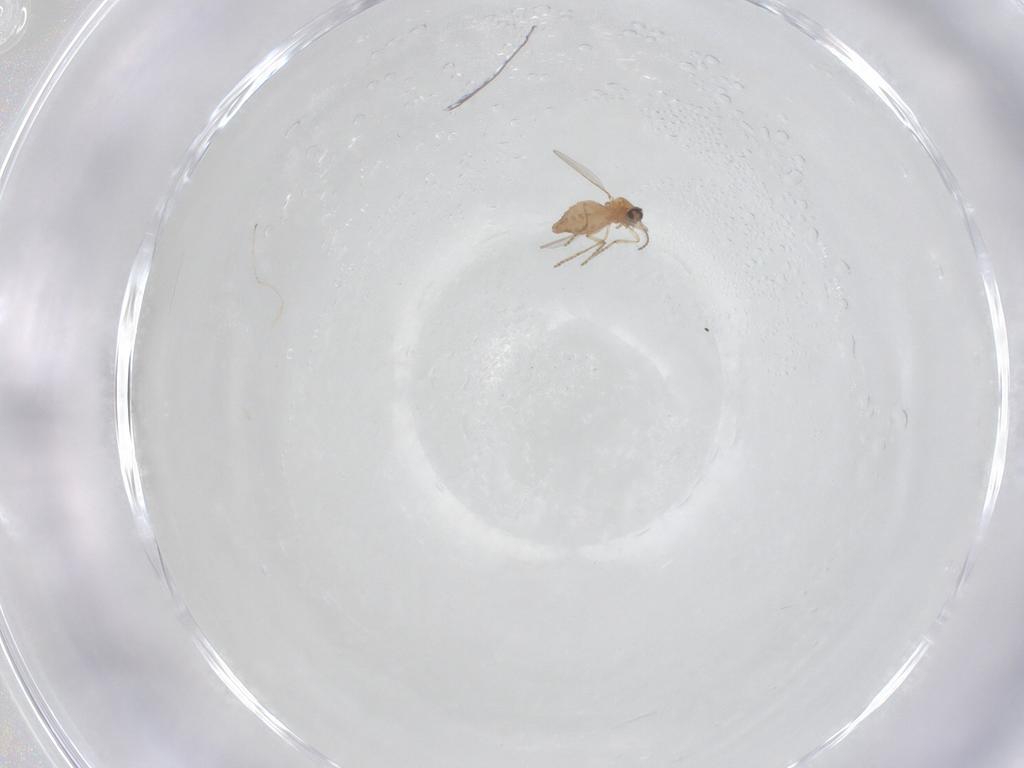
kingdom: Animalia
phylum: Arthropoda
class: Insecta
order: Diptera
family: Ceratopogonidae
